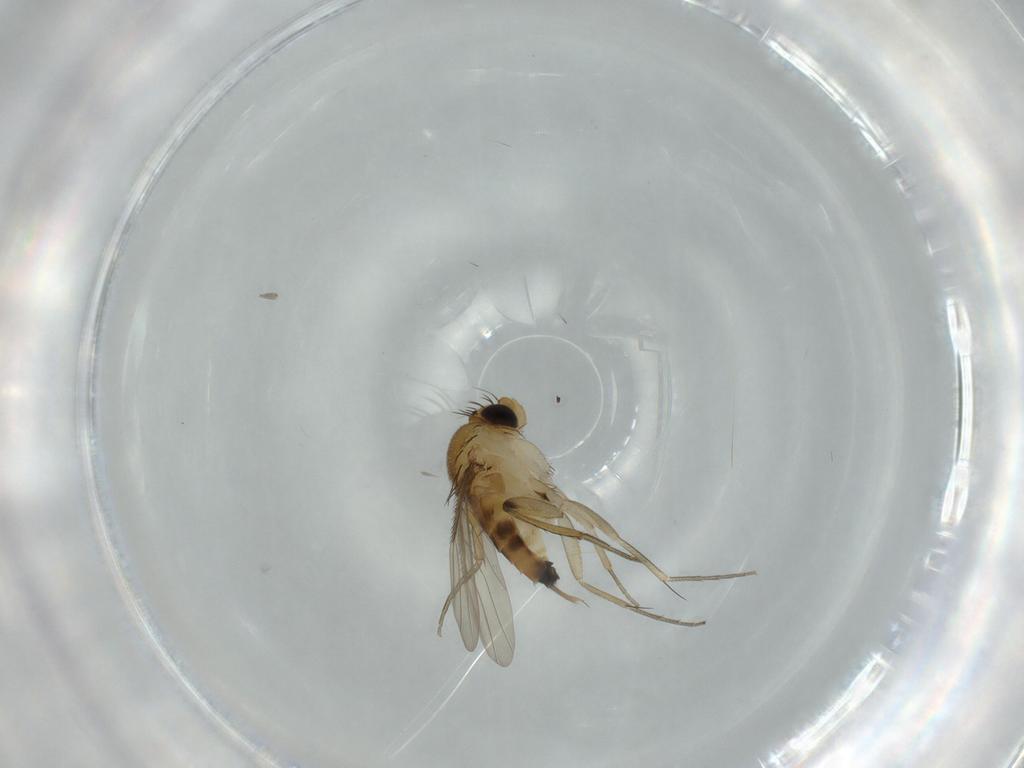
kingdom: Animalia
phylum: Arthropoda
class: Insecta
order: Diptera
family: Phoridae
